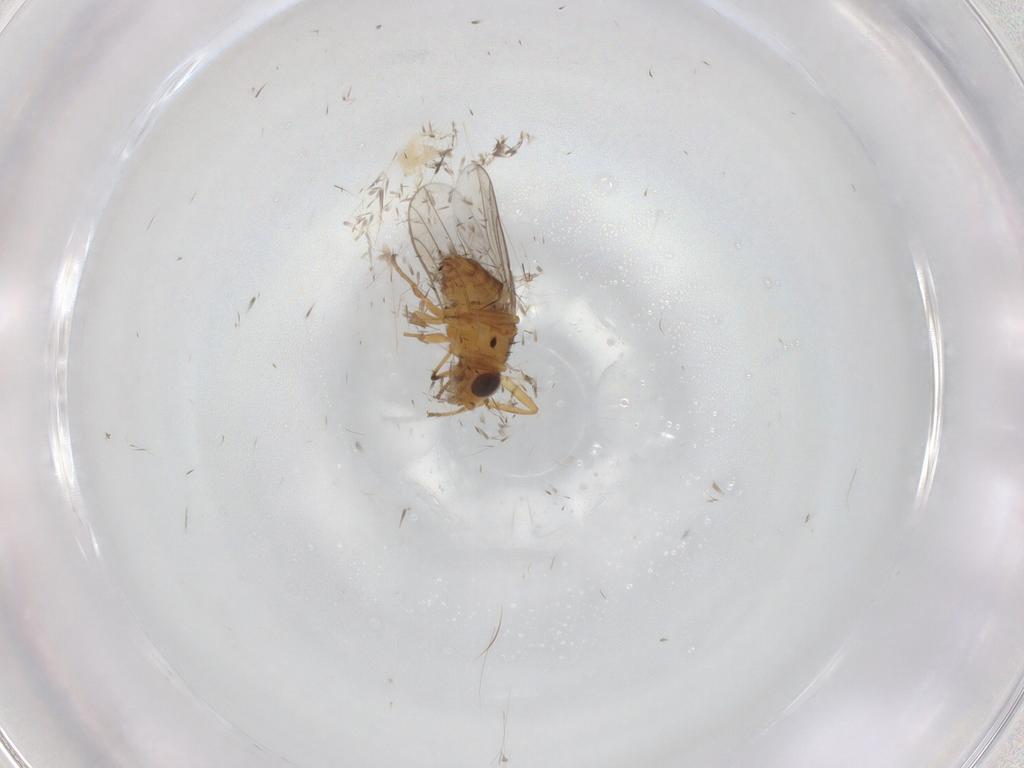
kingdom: Animalia
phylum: Arthropoda
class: Insecta
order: Diptera
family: Chloropidae
